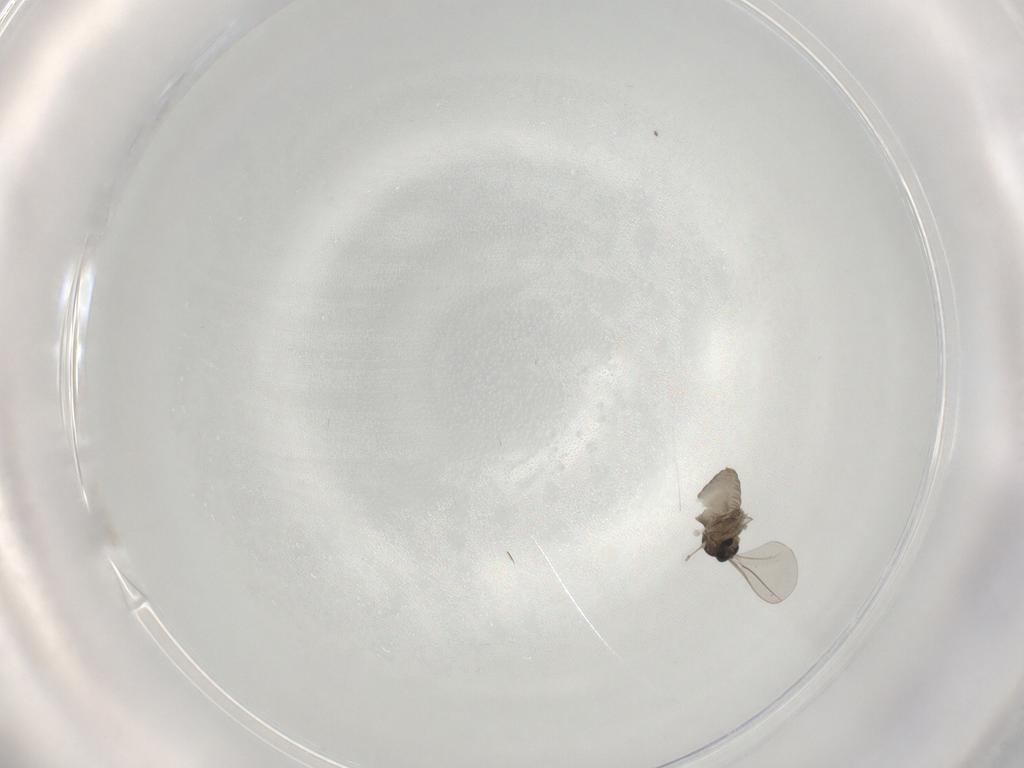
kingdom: Animalia
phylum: Arthropoda
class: Insecta
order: Diptera
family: Cecidomyiidae
